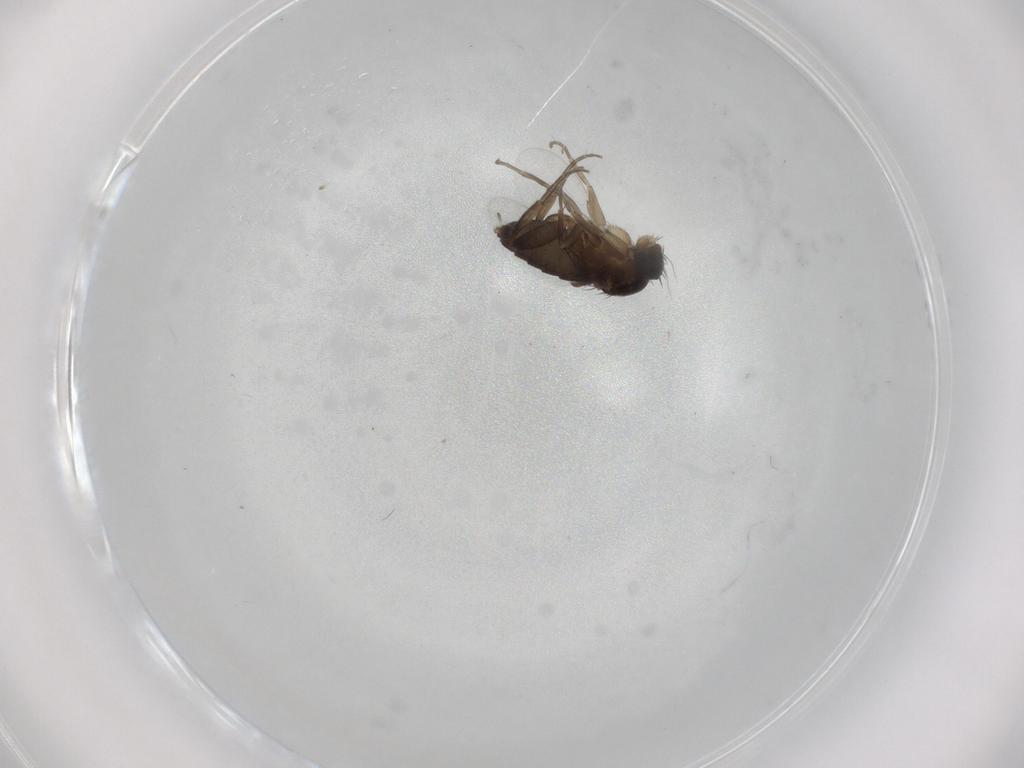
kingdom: Animalia
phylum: Arthropoda
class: Insecta
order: Diptera
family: Phoridae
